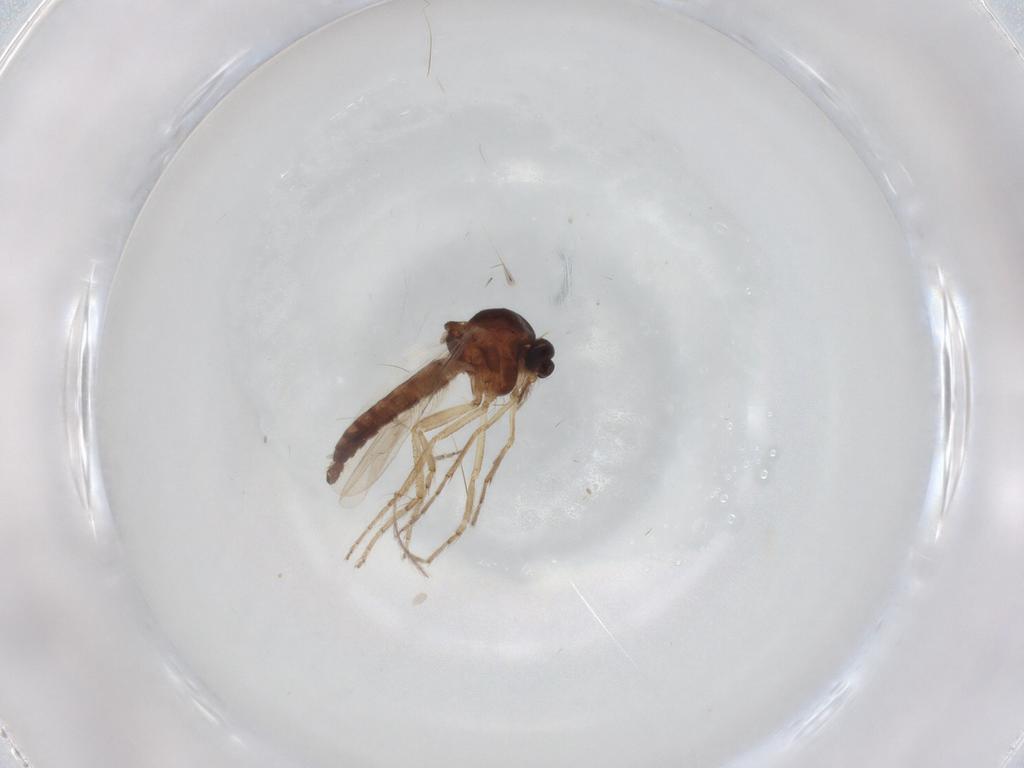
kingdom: Animalia
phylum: Arthropoda
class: Insecta
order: Diptera
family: Ceratopogonidae
